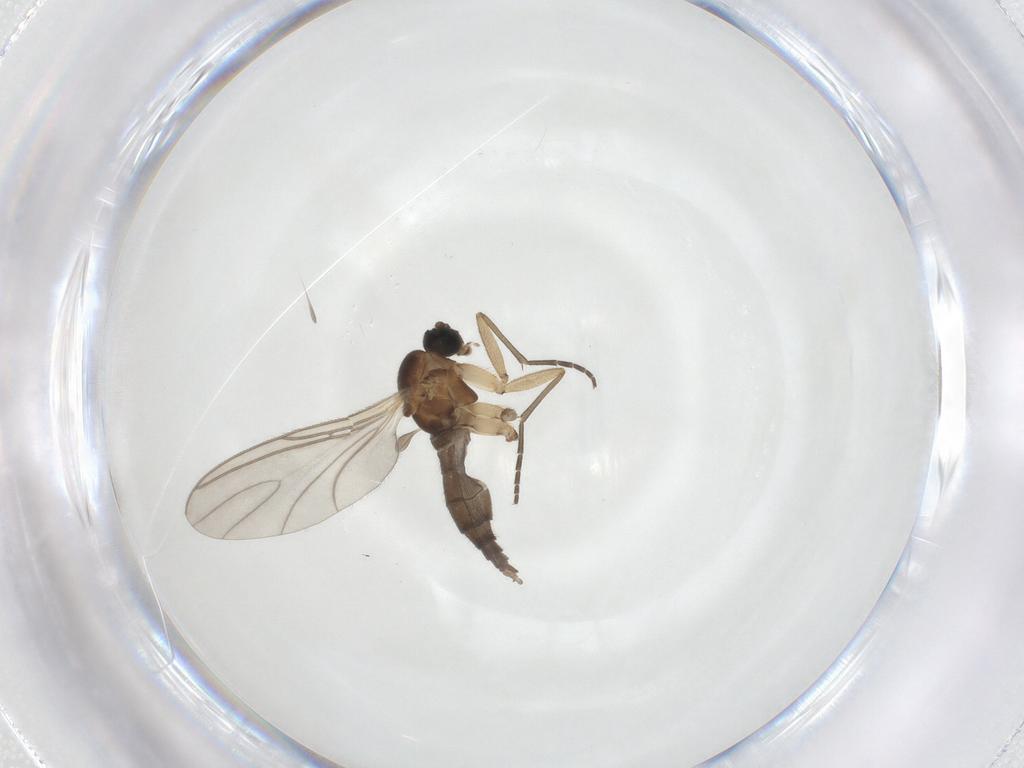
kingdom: Animalia
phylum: Arthropoda
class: Insecta
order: Diptera
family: Sciaridae
